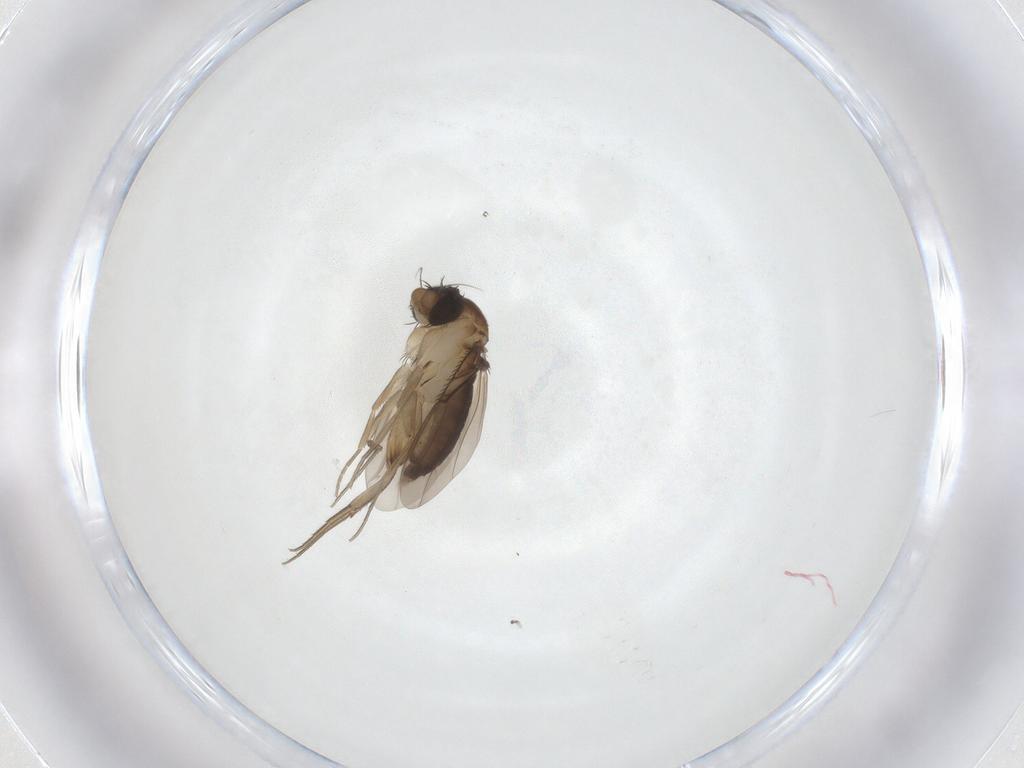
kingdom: Animalia
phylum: Arthropoda
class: Insecta
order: Diptera
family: Phoridae
